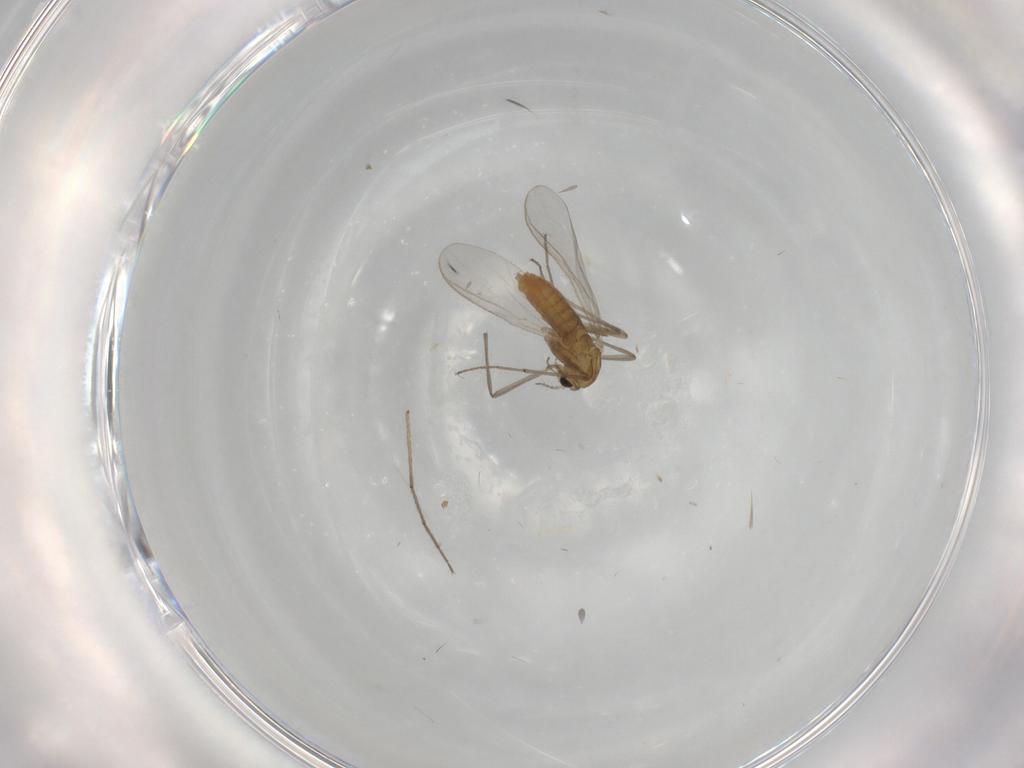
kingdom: Animalia
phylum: Arthropoda
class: Insecta
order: Diptera
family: Chironomidae
